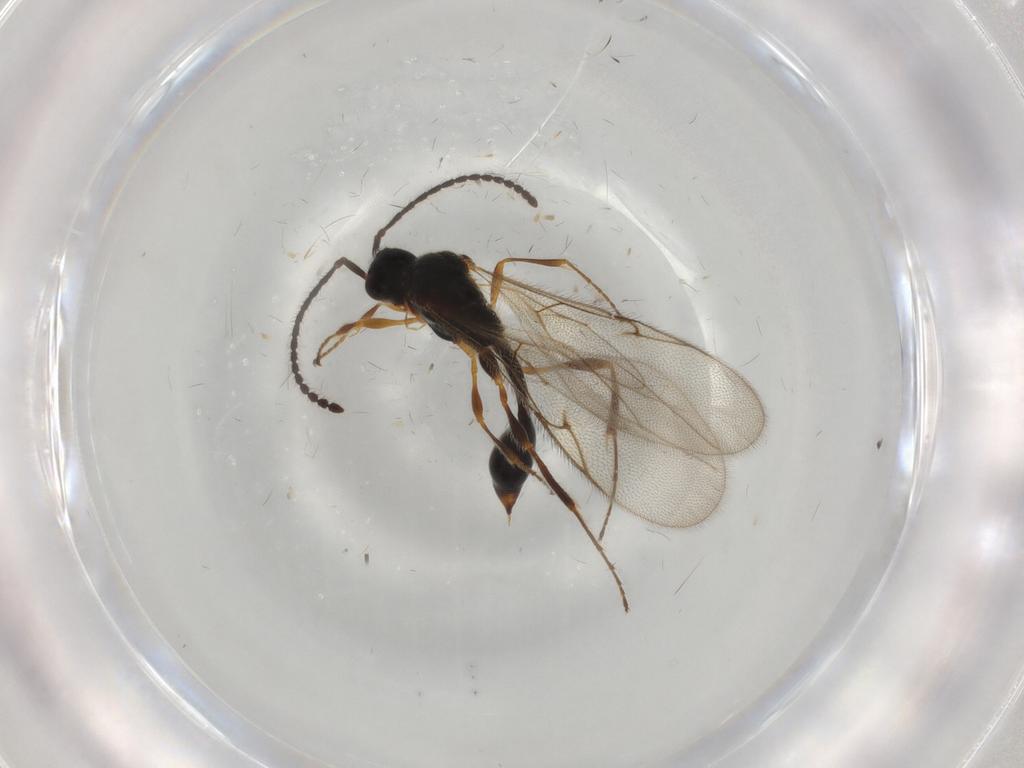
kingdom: Animalia
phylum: Arthropoda
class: Insecta
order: Hymenoptera
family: Diapriidae
